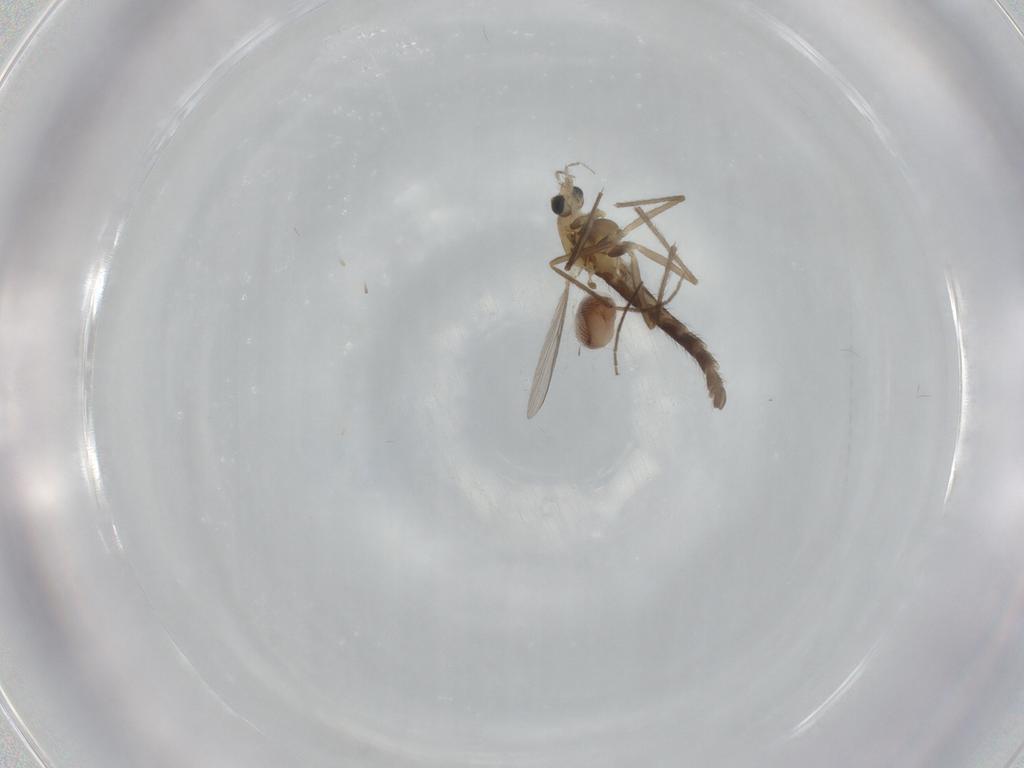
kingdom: Animalia
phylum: Arthropoda
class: Insecta
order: Diptera
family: Chironomidae
